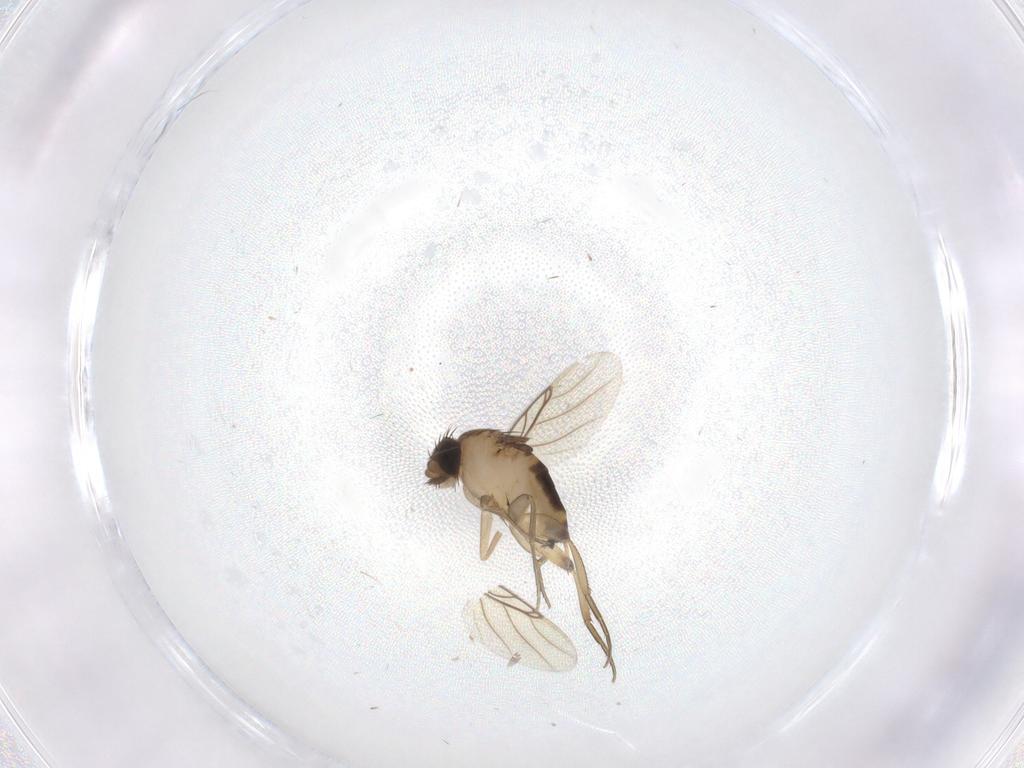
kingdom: Animalia
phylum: Arthropoda
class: Insecta
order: Diptera
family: Phoridae
